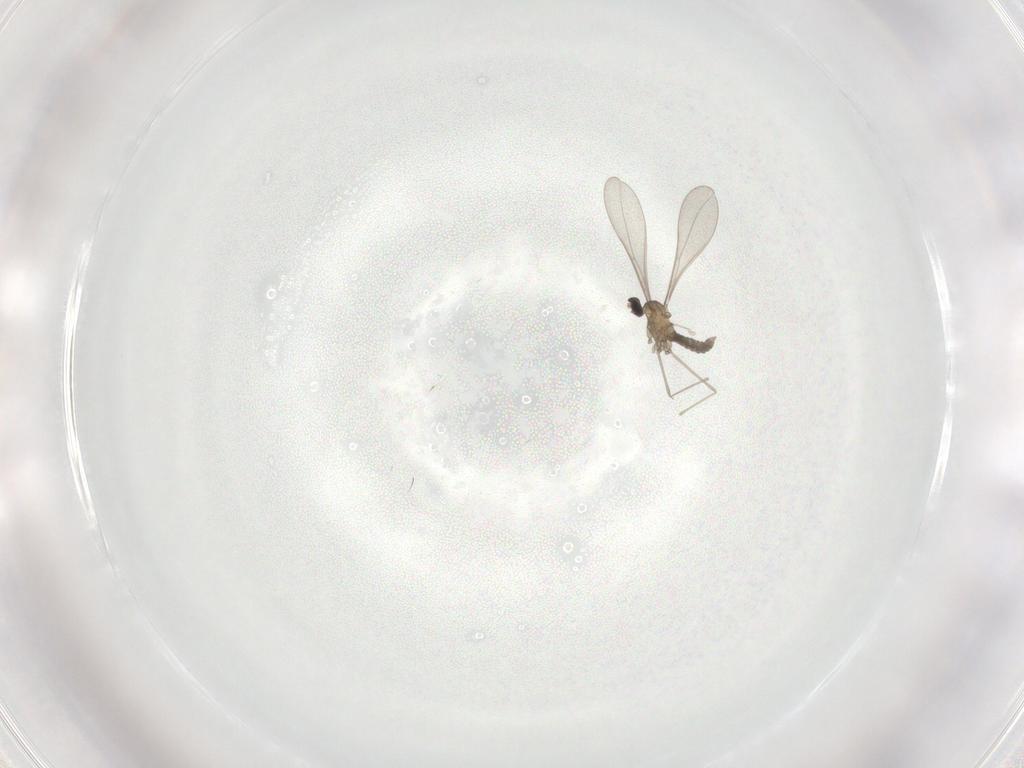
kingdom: Animalia
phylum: Arthropoda
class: Insecta
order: Diptera
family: Cecidomyiidae
